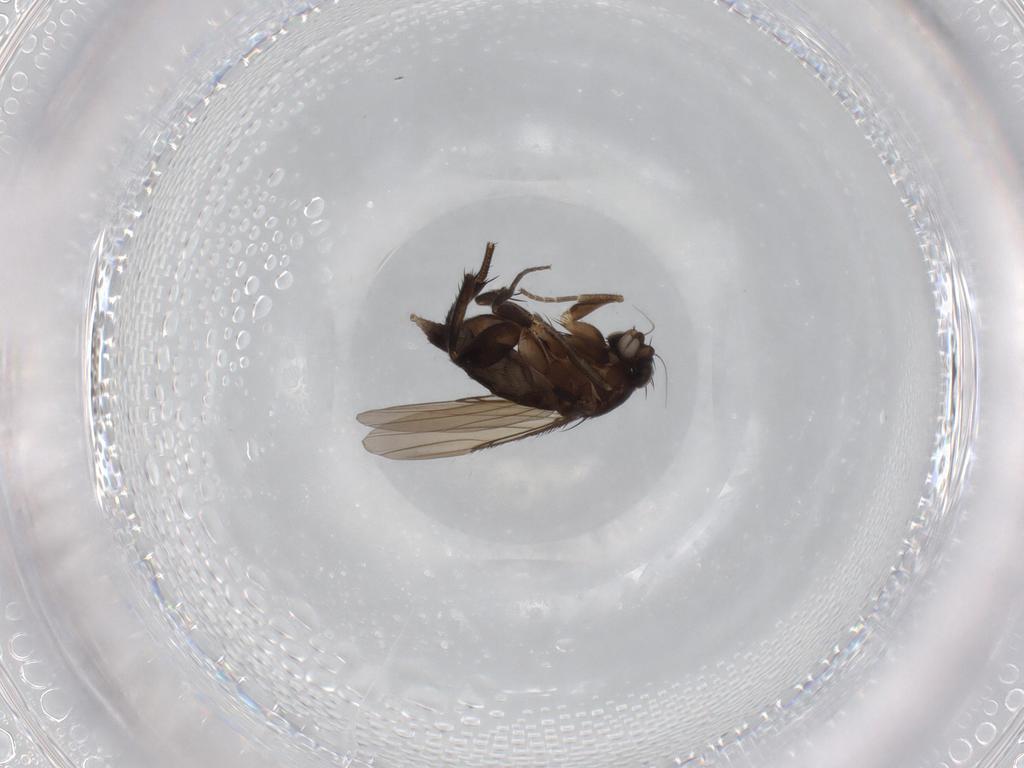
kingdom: Animalia
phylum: Arthropoda
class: Insecta
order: Diptera
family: Phoridae
